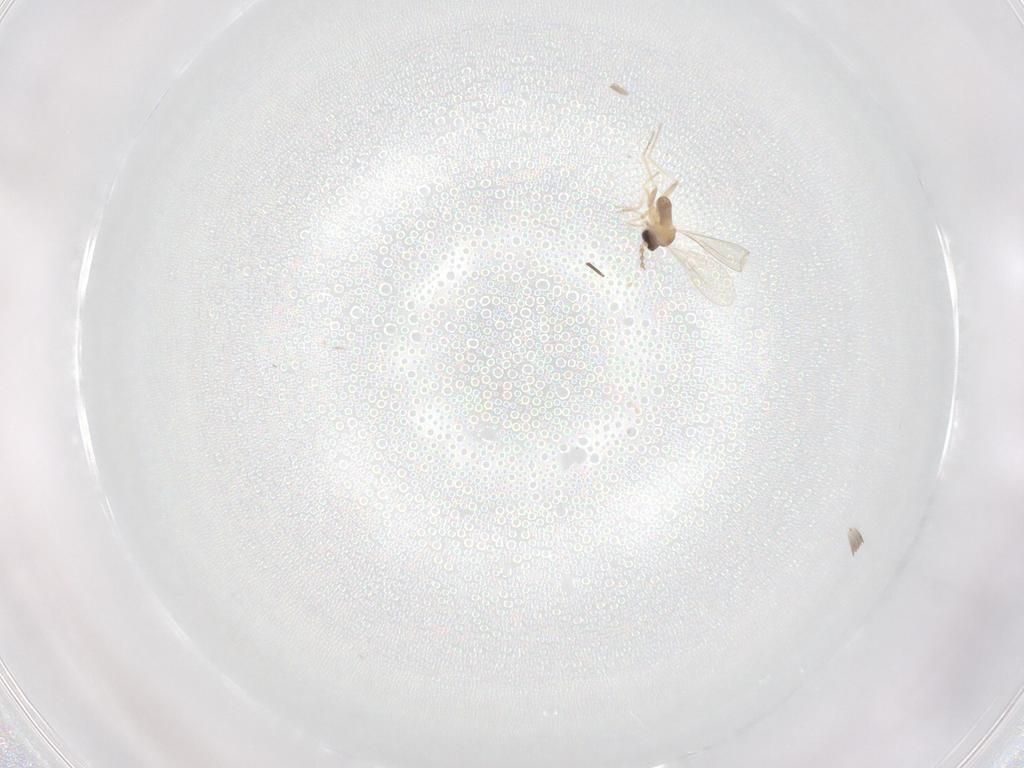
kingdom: Animalia
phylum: Arthropoda
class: Insecta
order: Diptera
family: Cecidomyiidae
